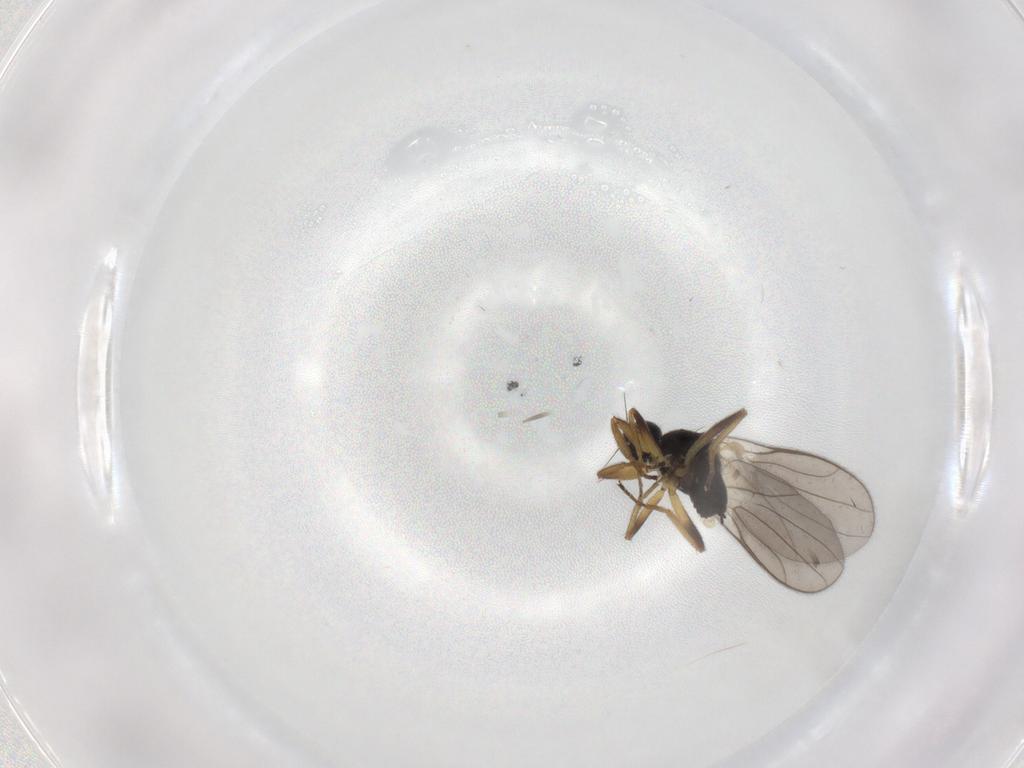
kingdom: Animalia
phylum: Arthropoda
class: Insecta
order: Diptera
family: Hybotidae
